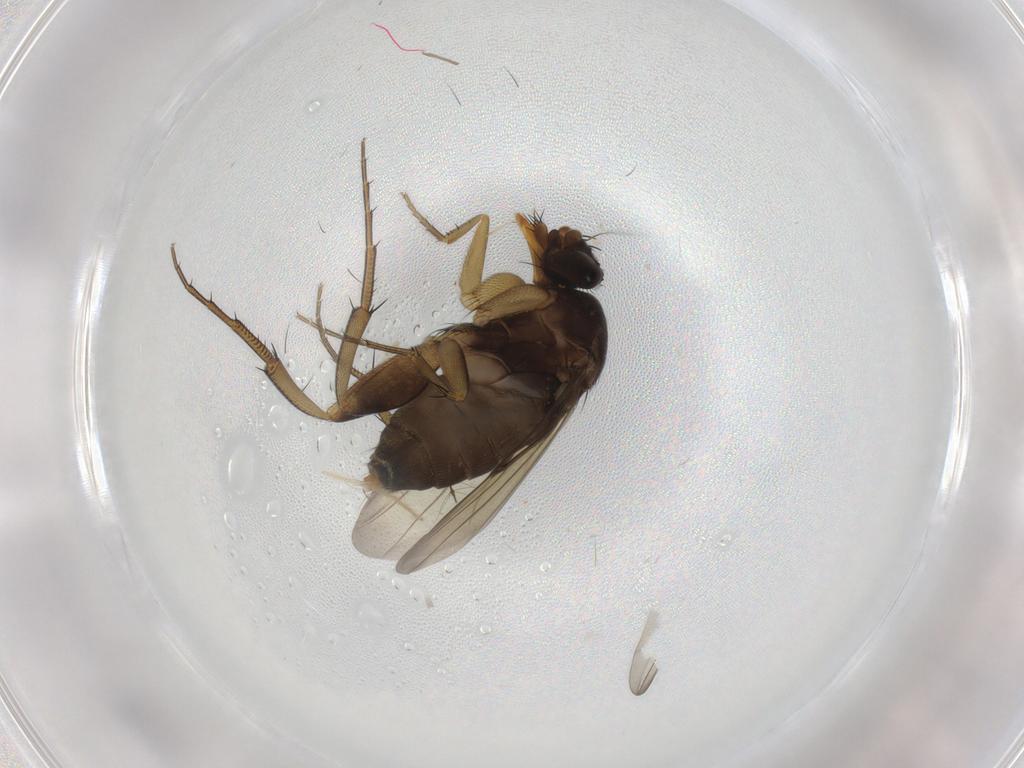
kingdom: Animalia
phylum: Arthropoda
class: Insecta
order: Diptera
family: Phoridae
